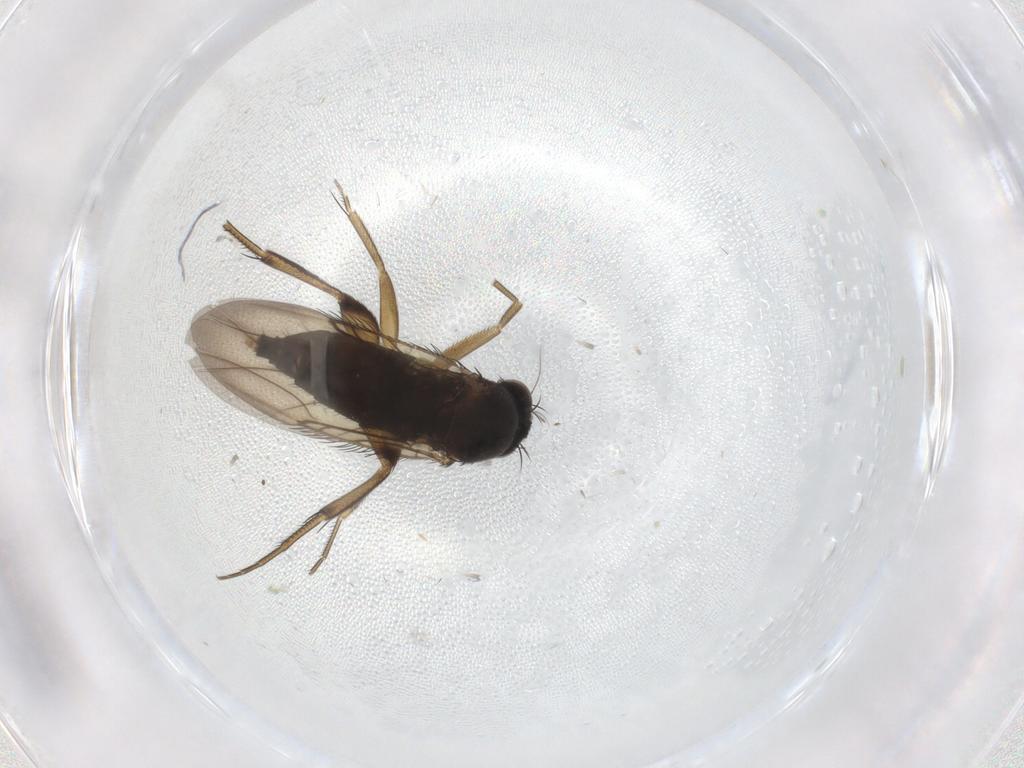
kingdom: Animalia
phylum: Arthropoda
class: Insecta
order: Diptera
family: Phoridae
